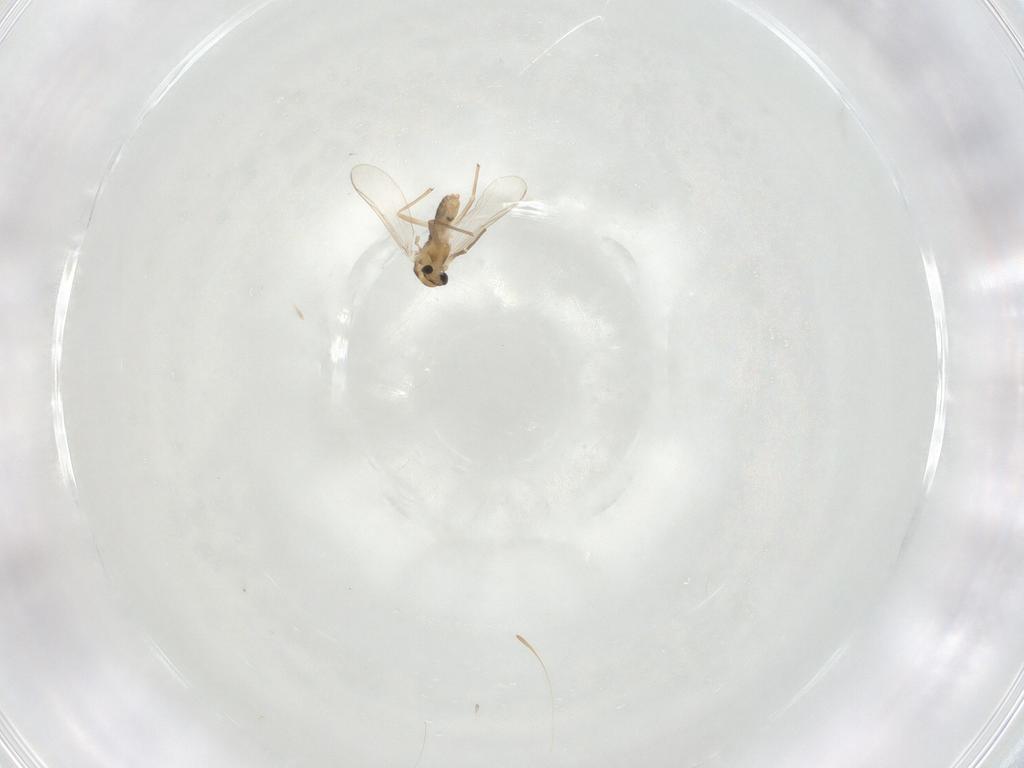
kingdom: Animalia
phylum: Arthropoda
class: Insecta
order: Diptera
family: Chironomidae
